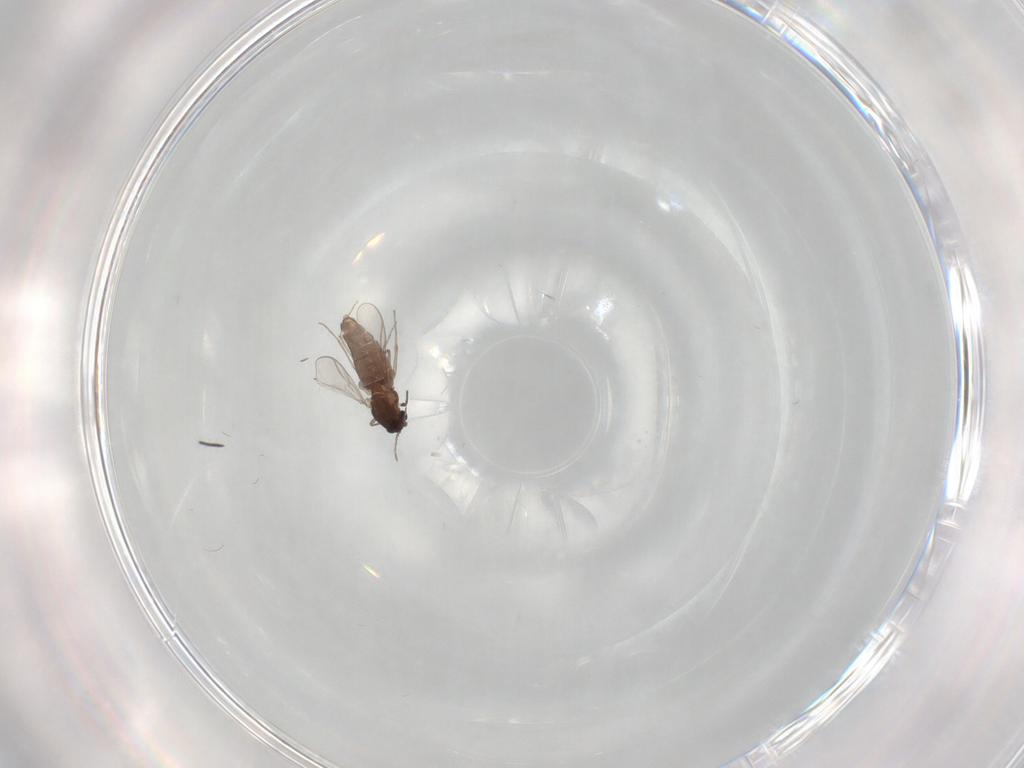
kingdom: Animalia
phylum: Arthropoda
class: Insecta
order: Diptera
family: Chironomidae
